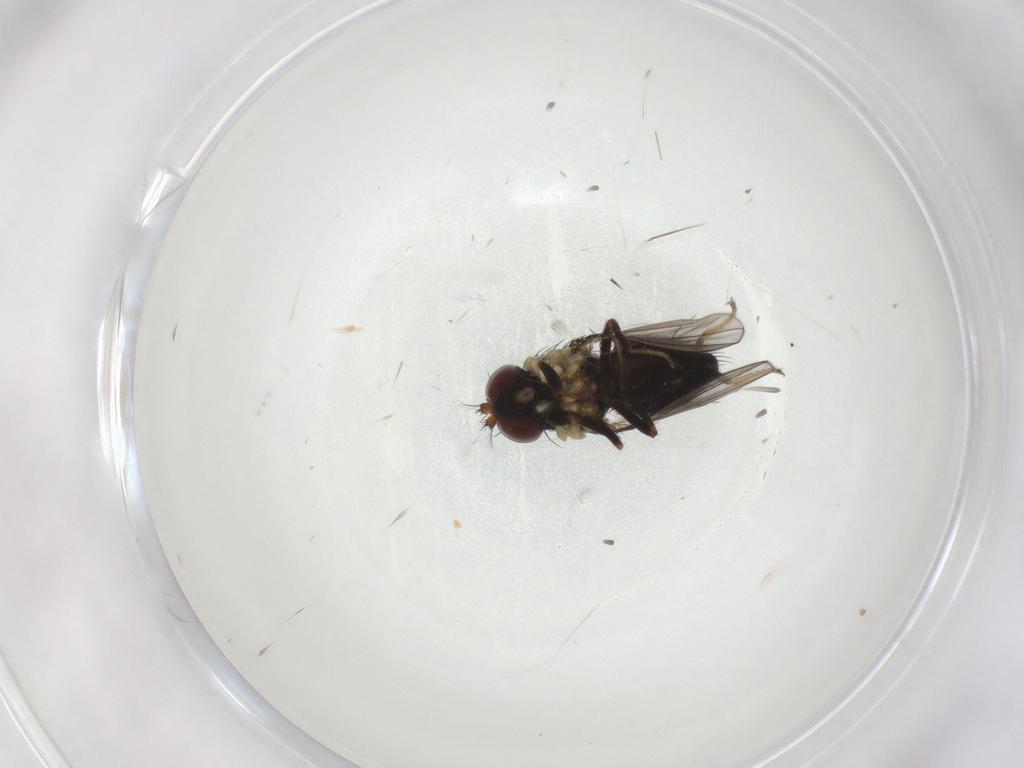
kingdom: Animalia
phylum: Arthropoda
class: Insecta
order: Diptera
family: Ephydridae
